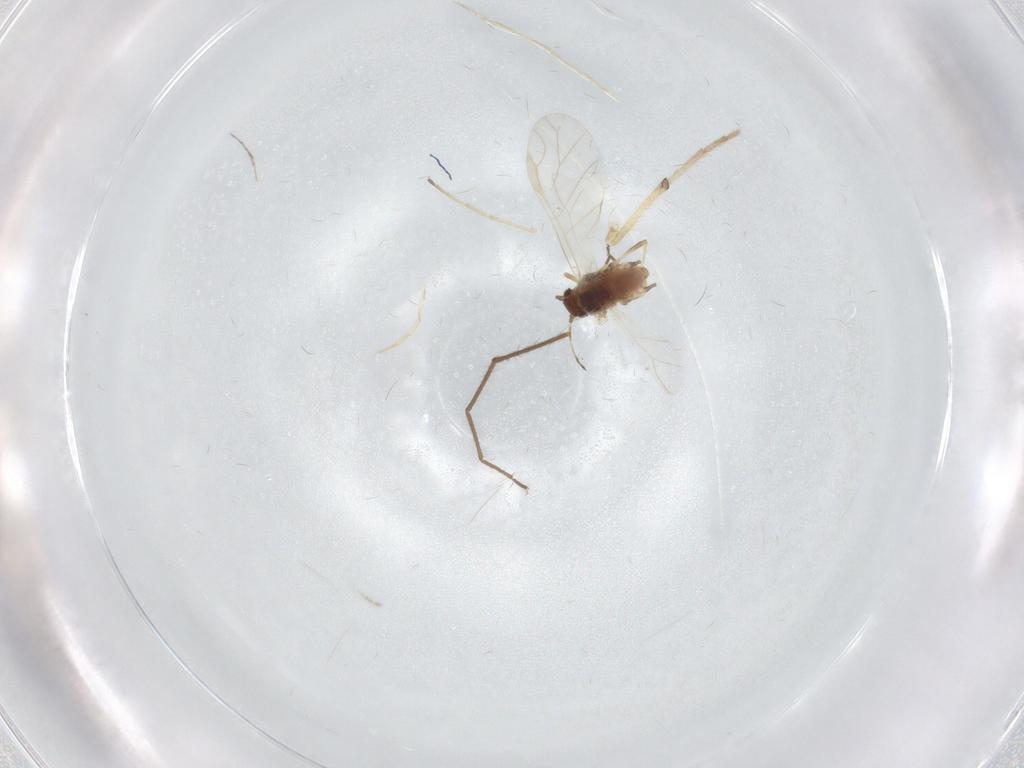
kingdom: Animalia
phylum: Arthropoda
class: Insecta
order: Hemiptera
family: Aphididae
